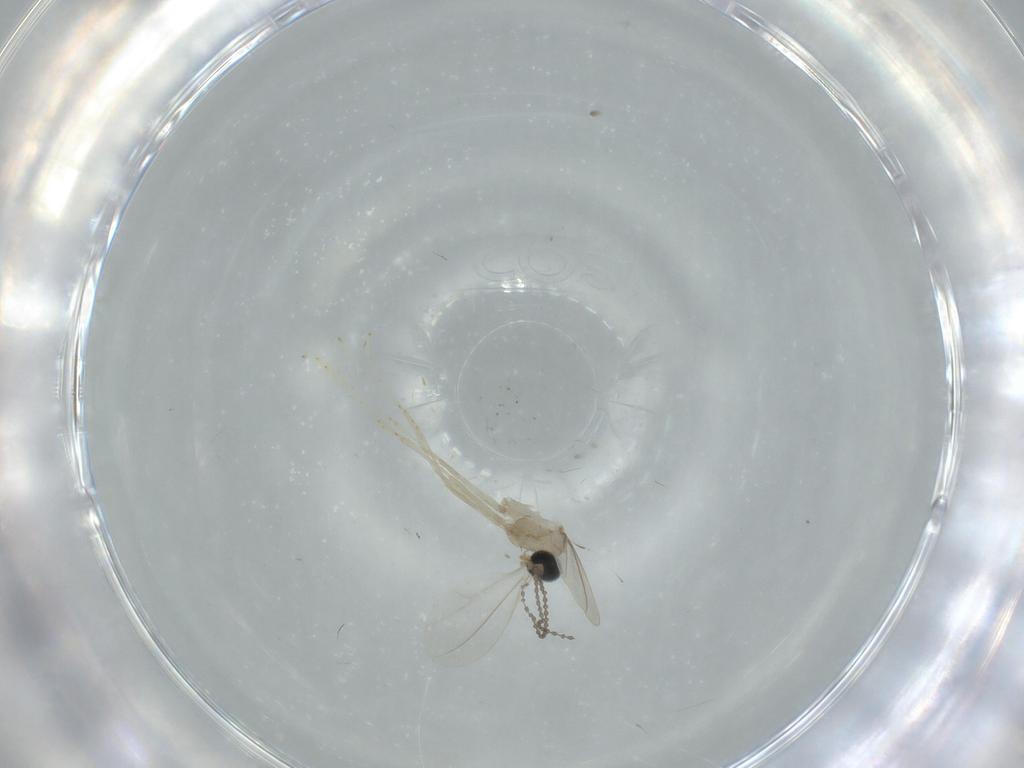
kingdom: Animalia
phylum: Arthropoda
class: Insecta
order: Diptera
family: Cecidomyiidae
